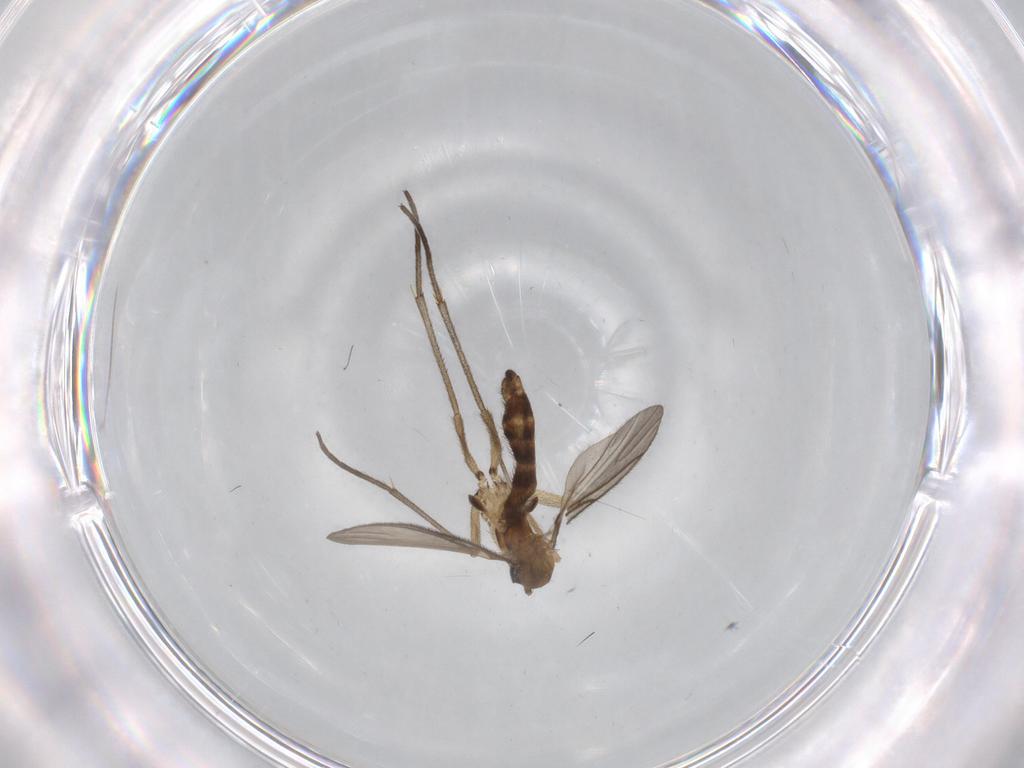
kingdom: Animalia
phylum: Arthropoda
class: Insecta
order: Diptera
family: Sciaridae
